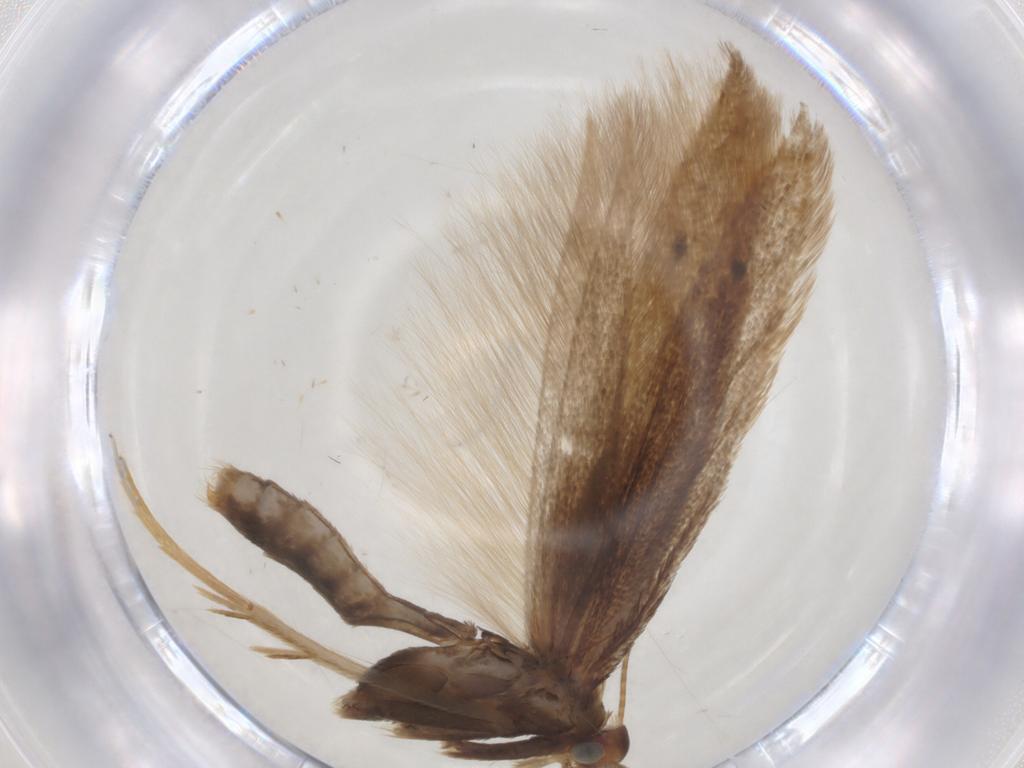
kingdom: Animalia
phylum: Arthropoda
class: Insecta
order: Lepidoptera
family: Coleophoridae
